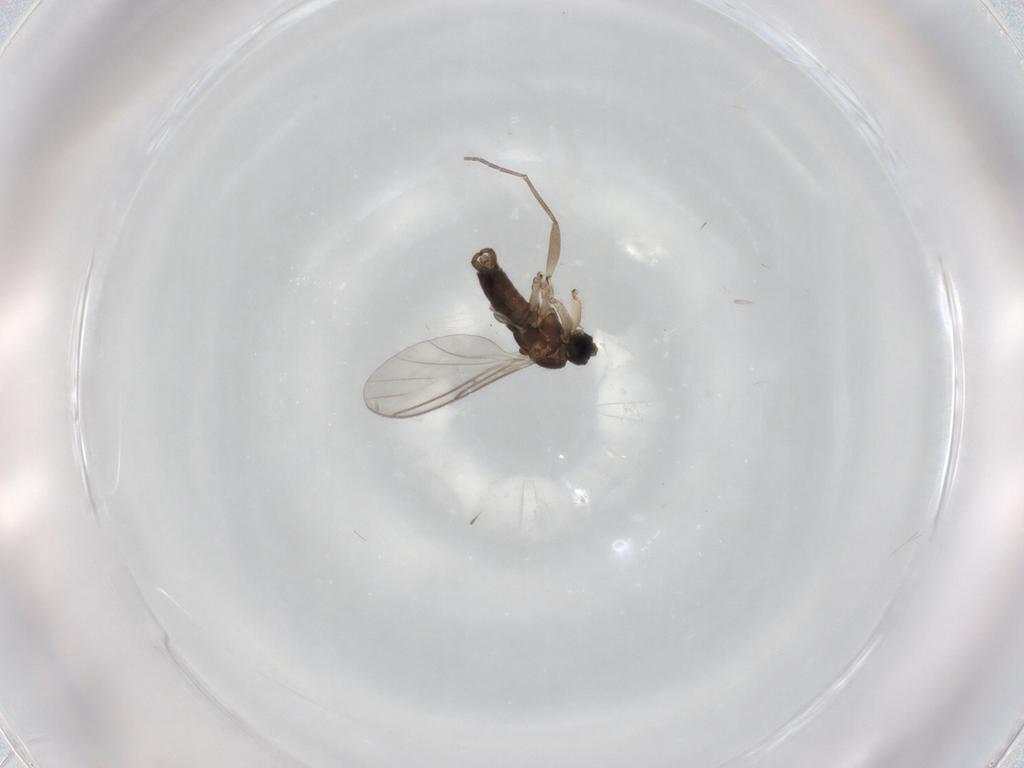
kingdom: Animalia
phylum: Arthropoda
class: Insecta
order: Diptera
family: Sciaridae
